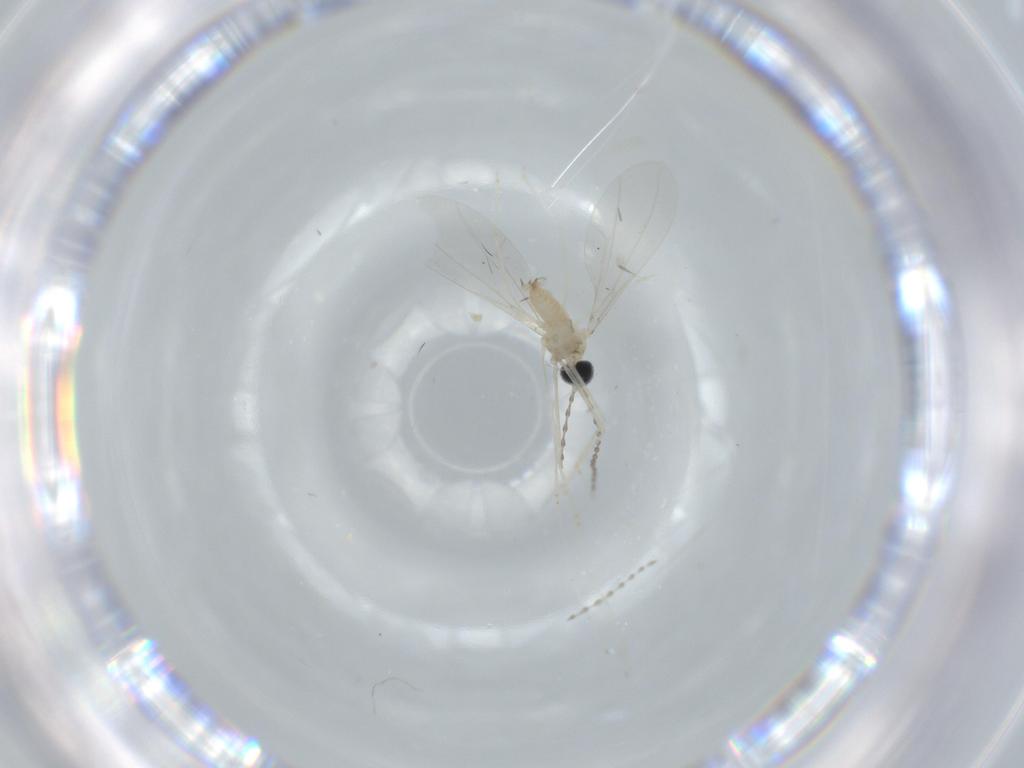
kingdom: Animalia
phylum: Arthropoda
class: Insecta
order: Diptera
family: Cecidomyiidae
